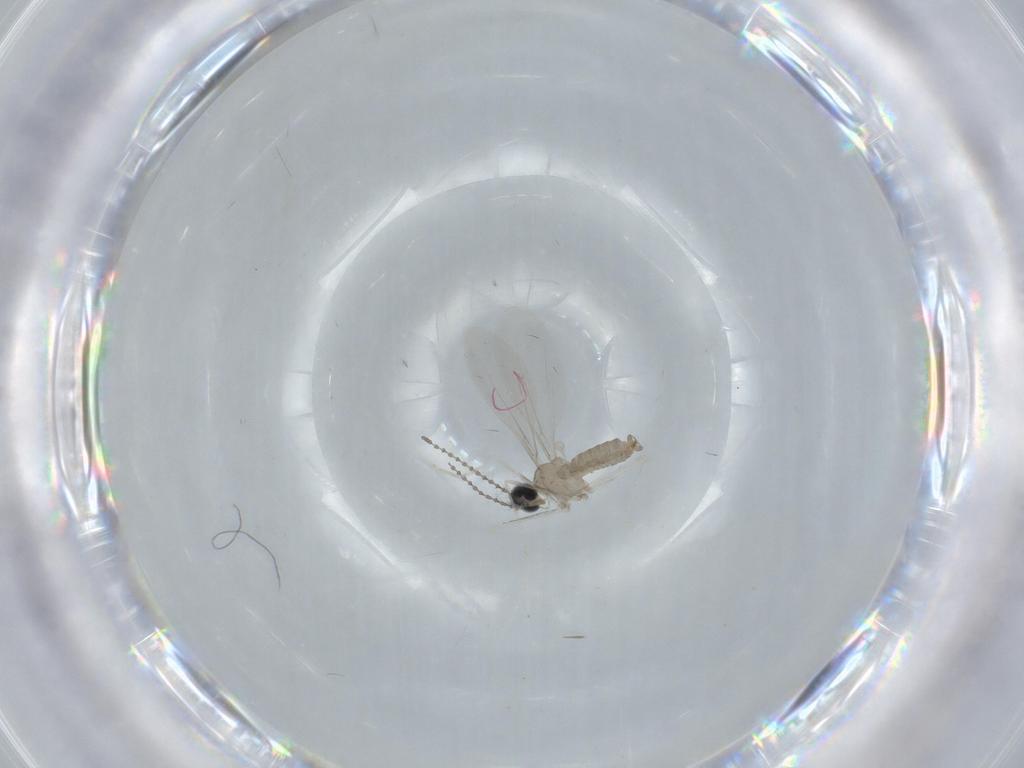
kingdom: Animalia
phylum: Arthropoda
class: Insecta
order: Diptera
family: Cecidomyiidae
